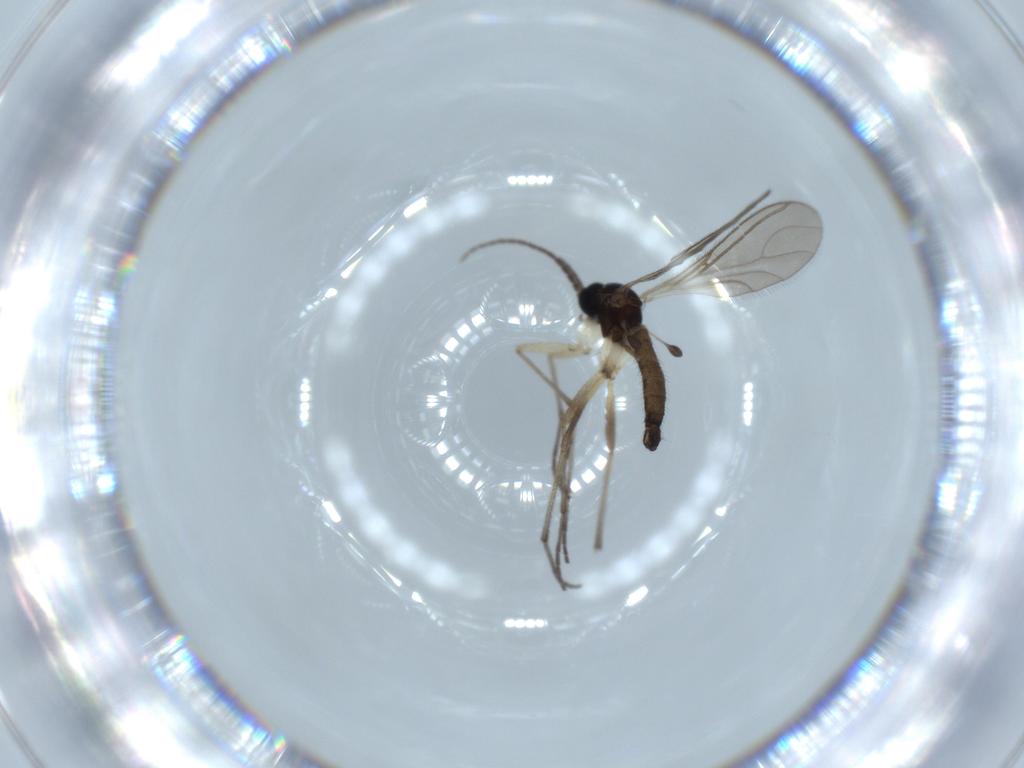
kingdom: Animalia
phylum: Arthropoda
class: Insecta
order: Diptera
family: Sciaridae
